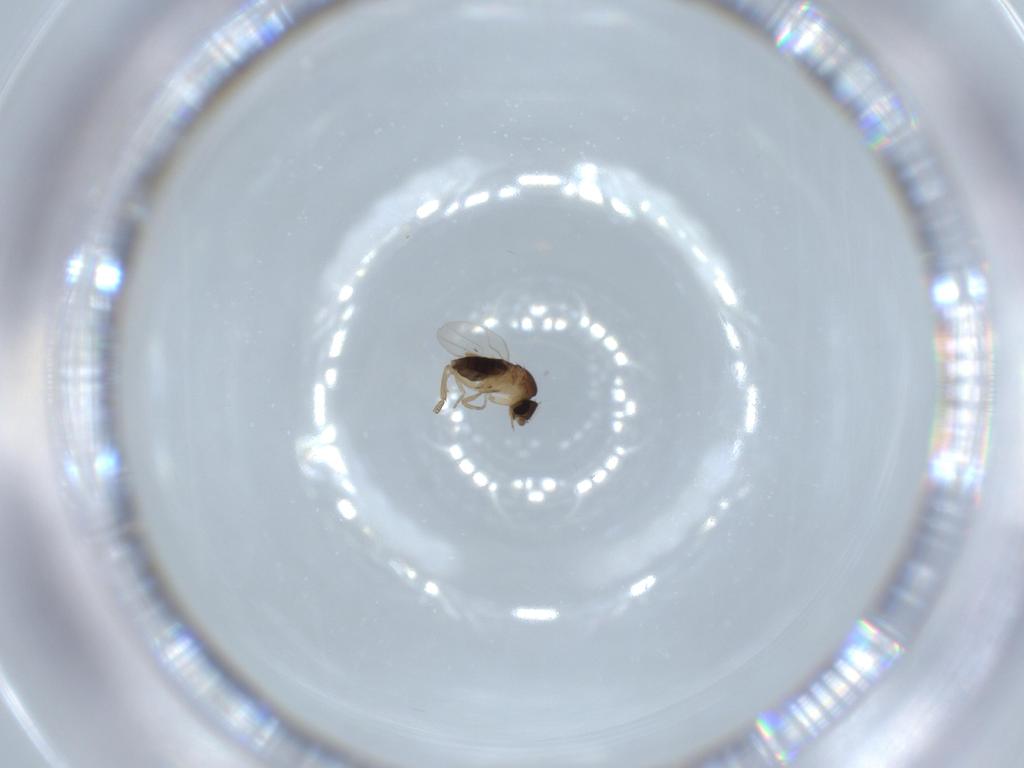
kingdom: Animalia
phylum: Arthropoda
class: Insecta
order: Diptera
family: Phoridae
